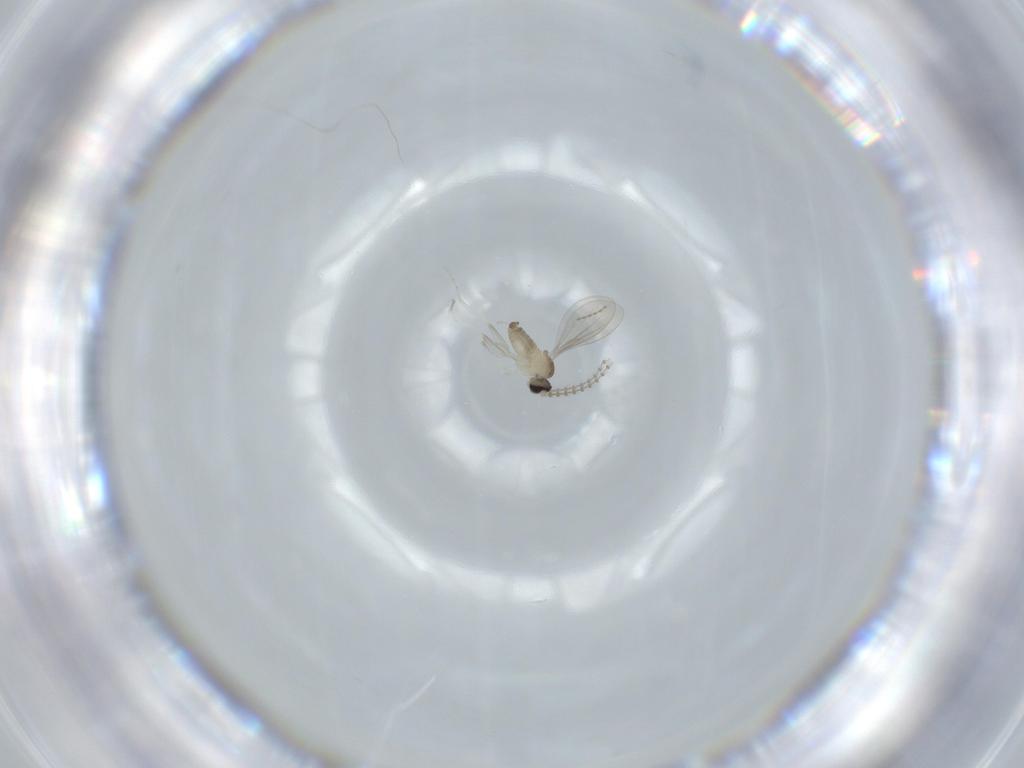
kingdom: Animalia
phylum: Arthropoda
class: Insecta
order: Diptera
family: Cecidomyiidae
